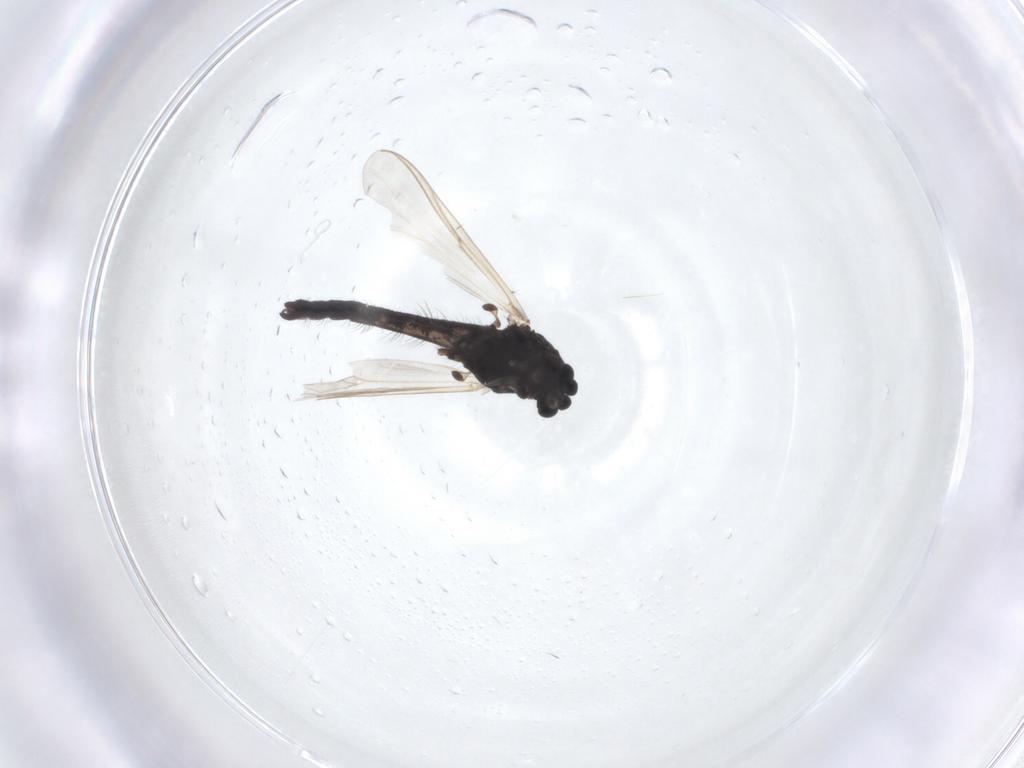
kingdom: Animalia
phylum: Arthropoda
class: Insecta
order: Diptera
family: Chironomidae
